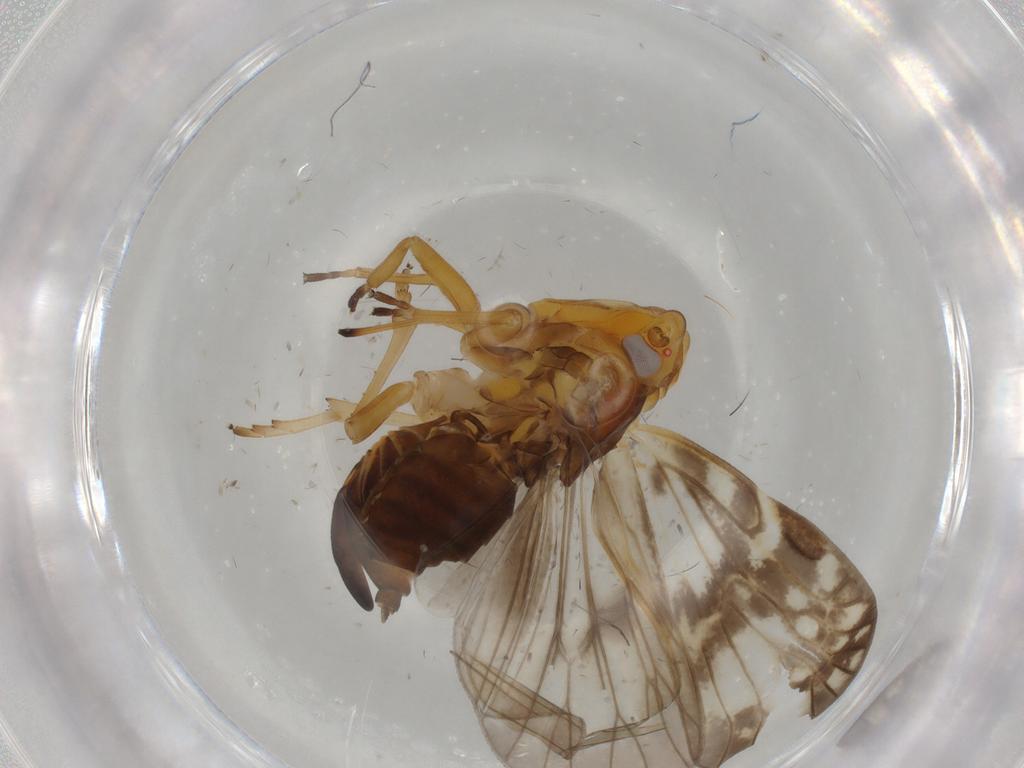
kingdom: Animalia
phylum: Arthropoda
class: Insecta
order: Hemiptera
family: Cixiidae
